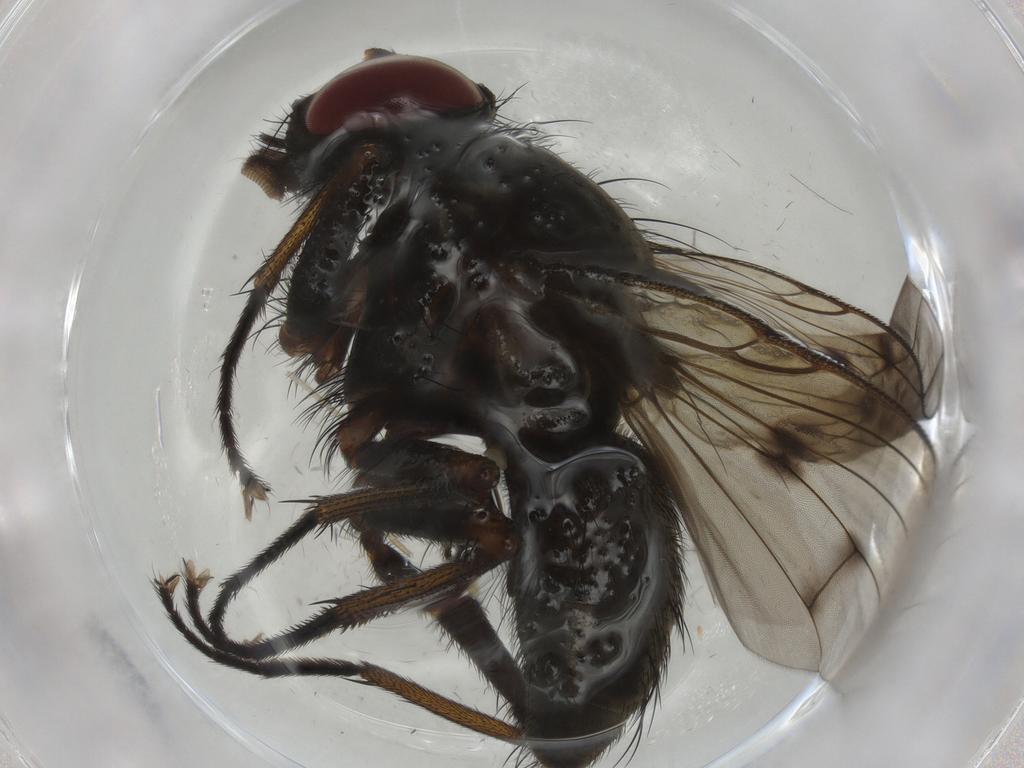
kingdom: Animalia
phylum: Arthropoda
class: Insecta
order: Diptera
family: Muscidae
